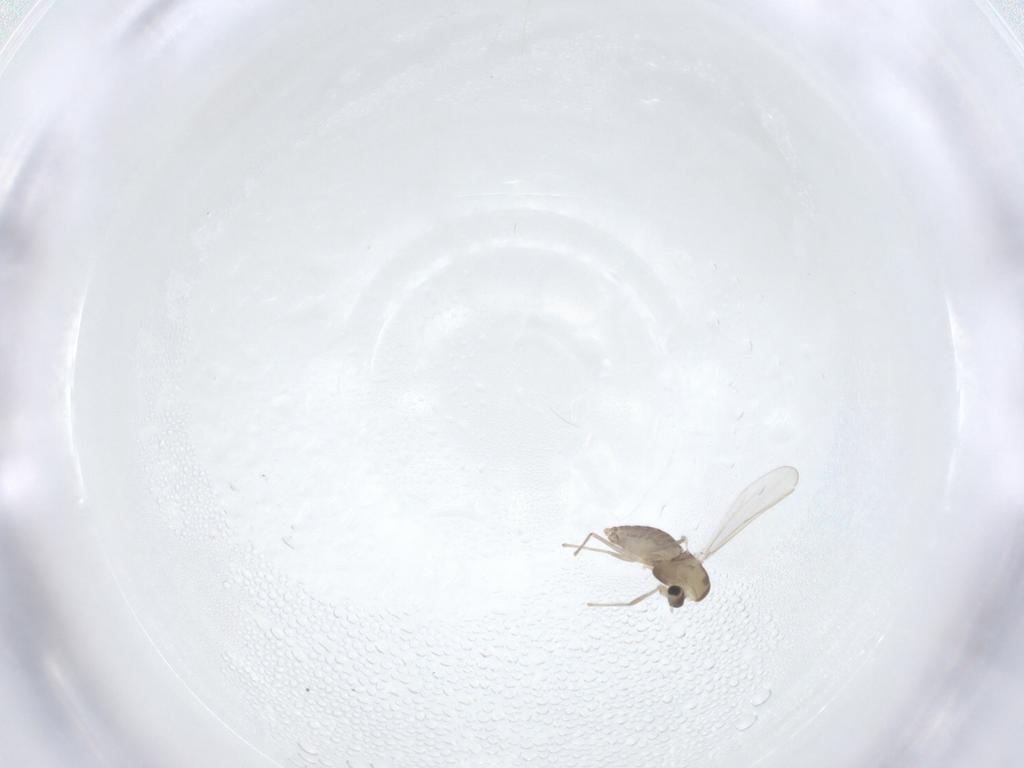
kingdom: Animalia
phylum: Arthropoda
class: Insecta
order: Diptera
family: Chironomidae
